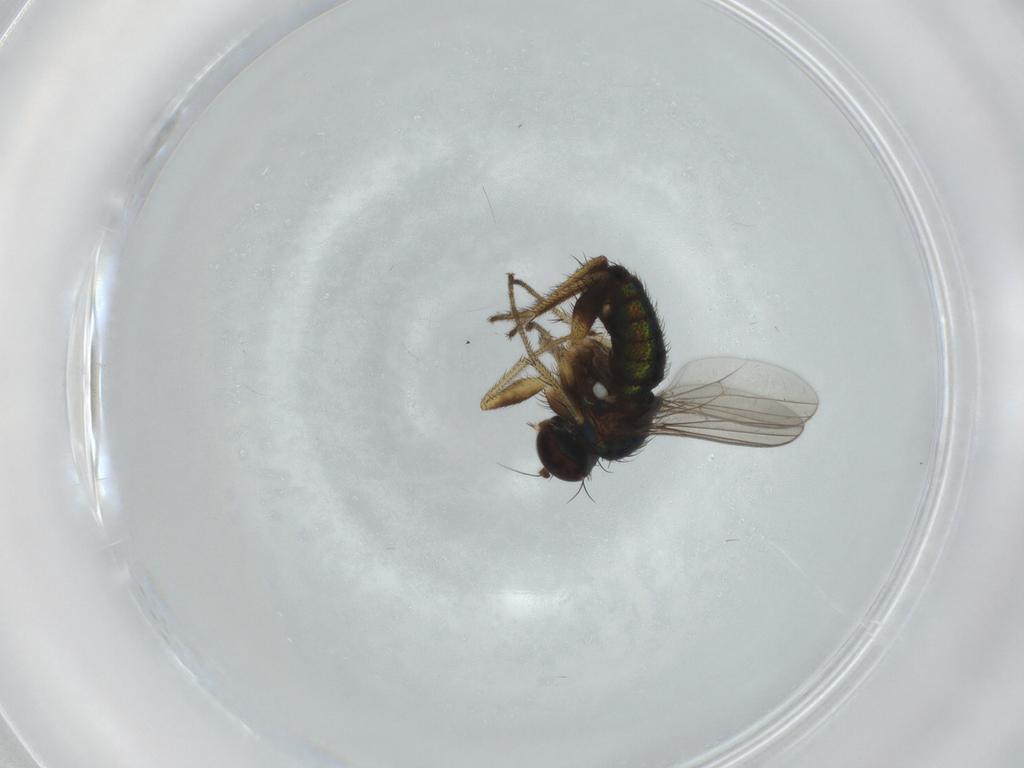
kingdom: Animalia
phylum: Arthropoda
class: Insecta
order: Diptera
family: Dolichopodidae
